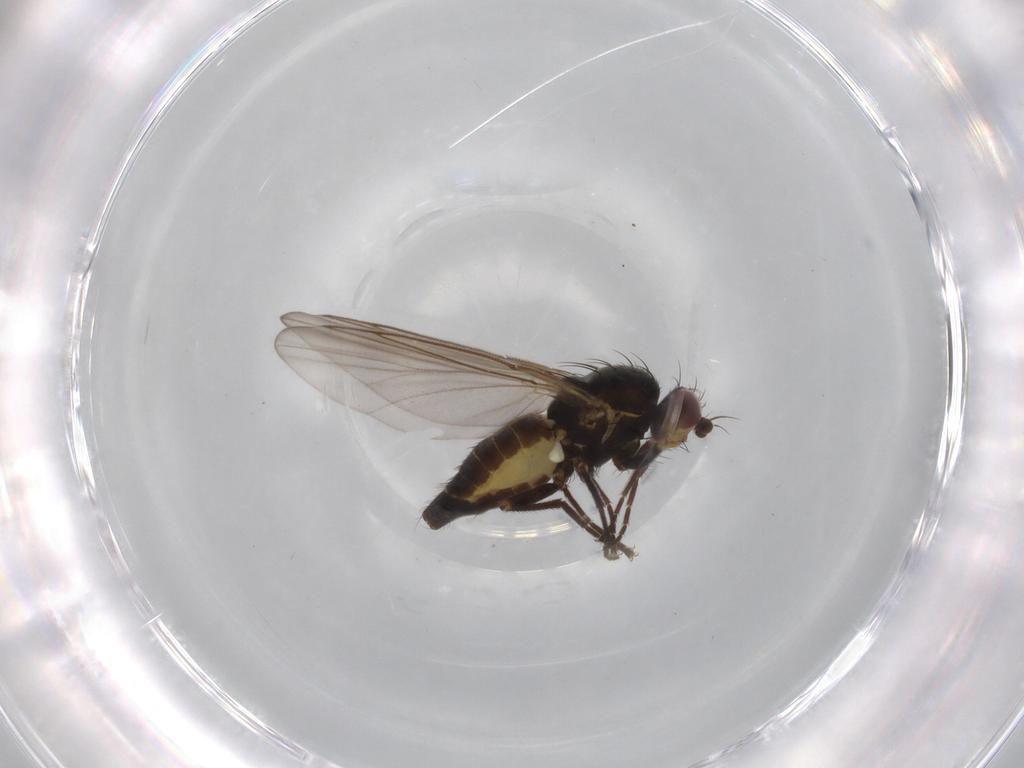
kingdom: Animalia
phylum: Arthropoda
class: Insecta
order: Diptera
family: Agromyzidae
